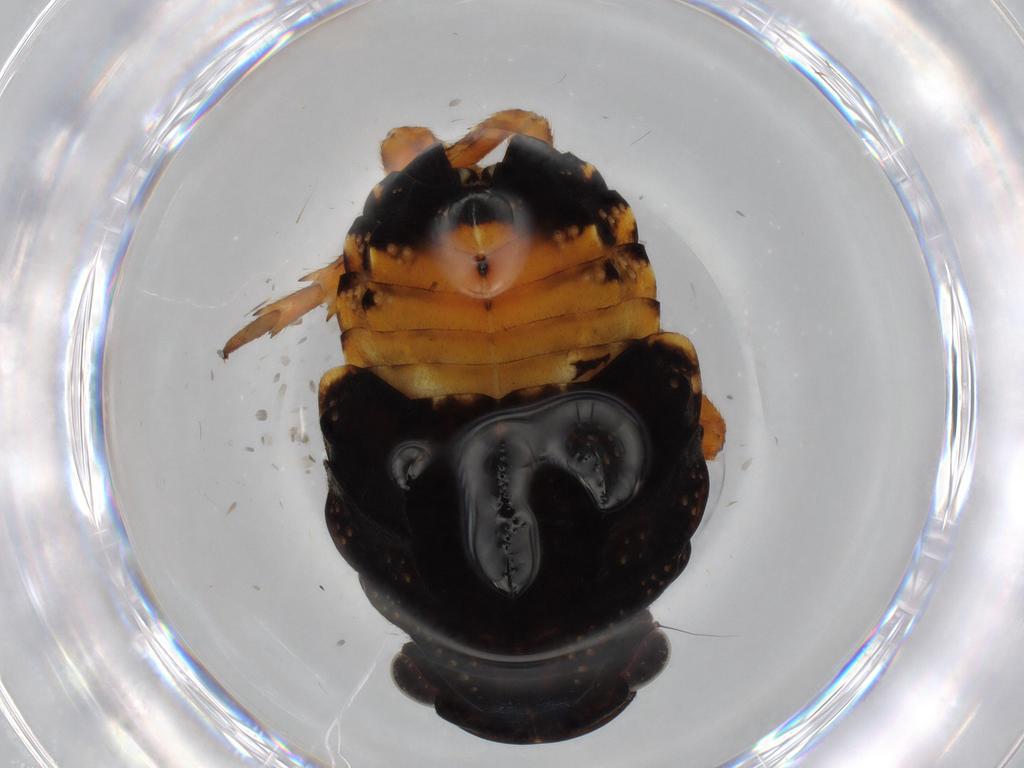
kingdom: Animalia
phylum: Arthropoda
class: Insecta
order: Hemiptera
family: Fulgoridae
